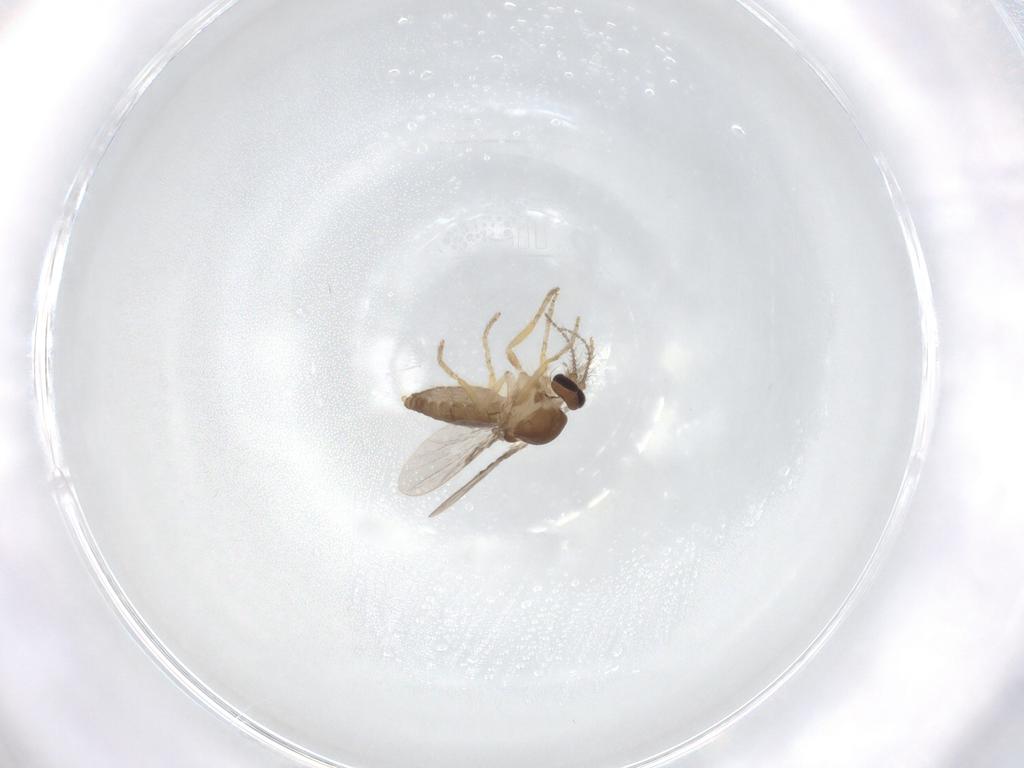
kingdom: Animalia
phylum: Arthropoda
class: Insecta
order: Diptera
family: Ceratopogonidae
